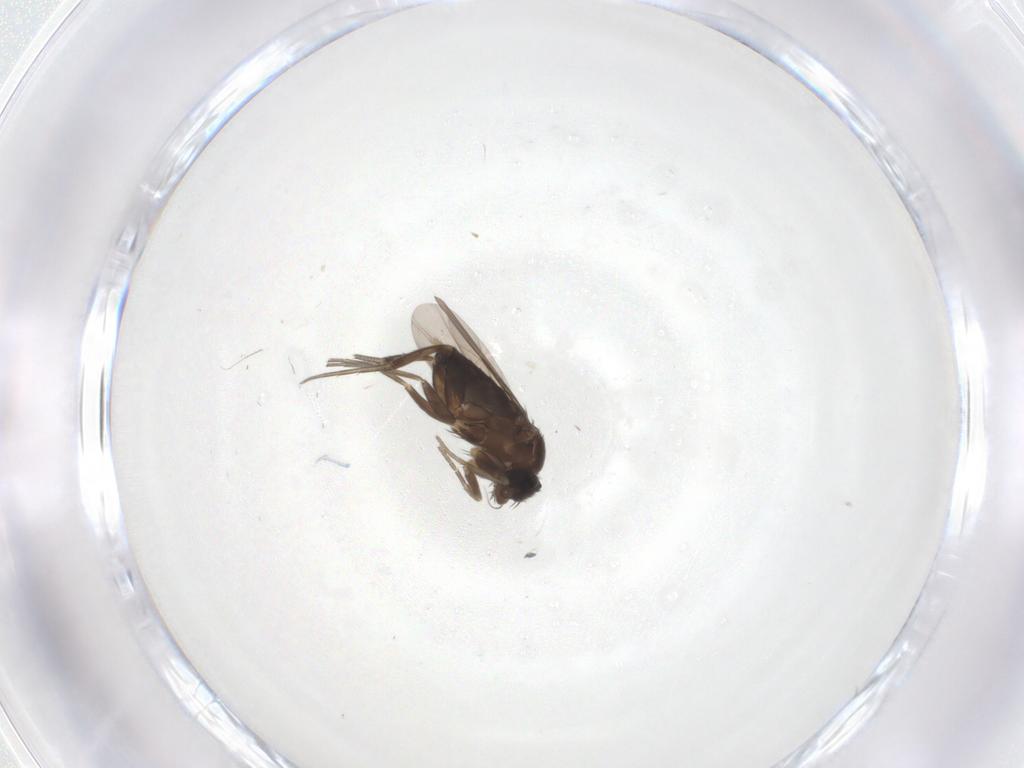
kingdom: Animalia
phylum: Arthropoda
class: Insecta
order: Diptera
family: Phoridae
